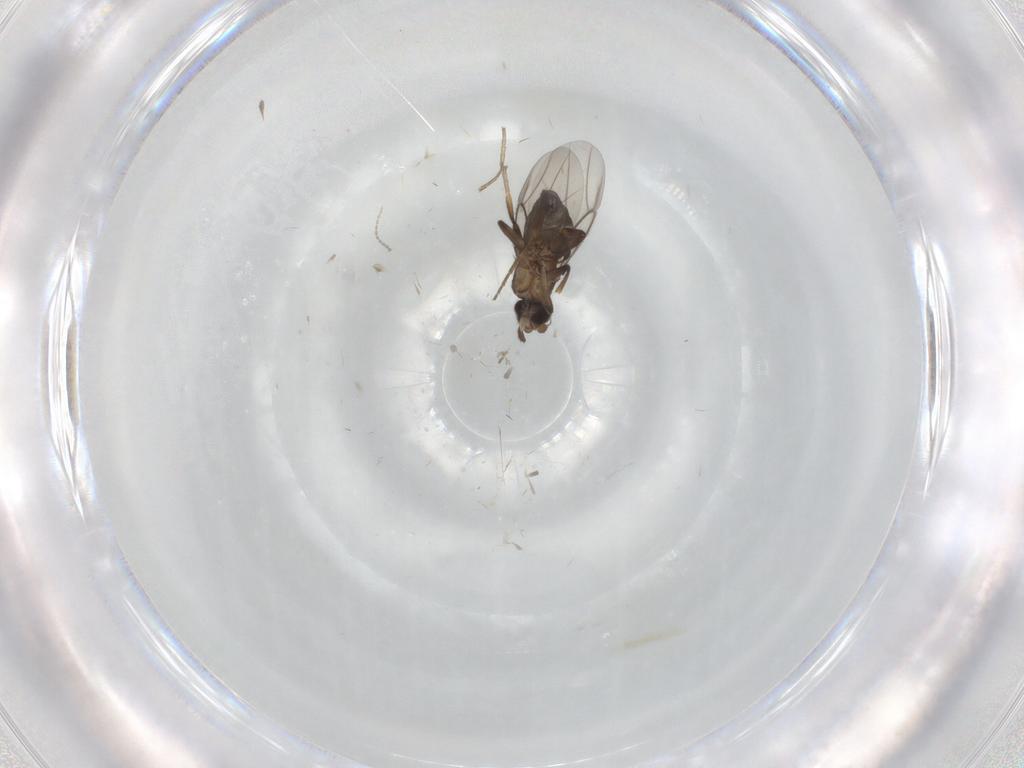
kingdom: Animalia
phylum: Arthropoda
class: Insecta
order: Diptera
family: Ceratopogonidae
